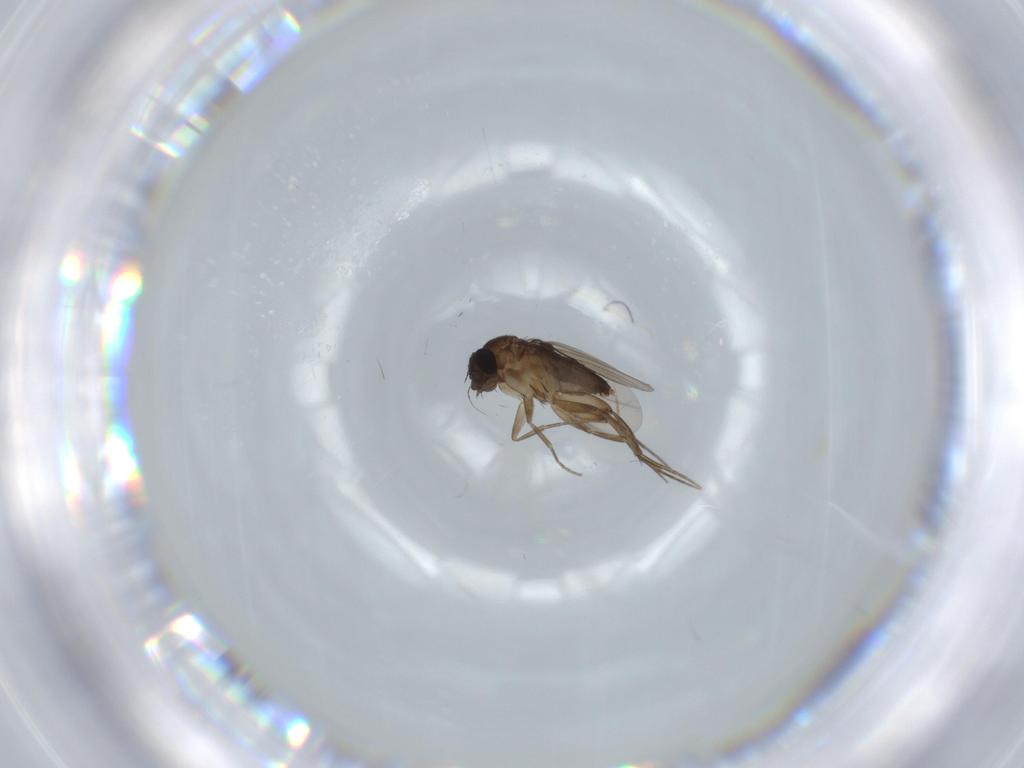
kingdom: Animalia
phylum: Arthropoda
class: Insecta
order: Diptera
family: Phoridae
